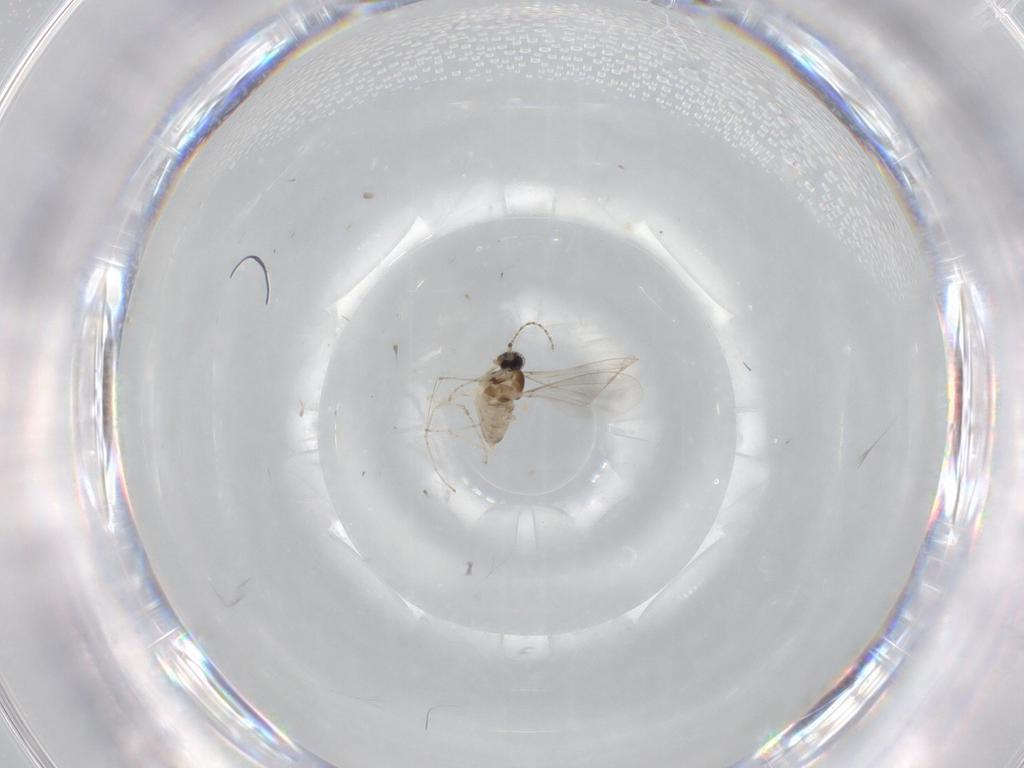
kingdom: Animalia
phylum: Arthropoda
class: Insecta
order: Diptera
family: Cecidomyiidae
